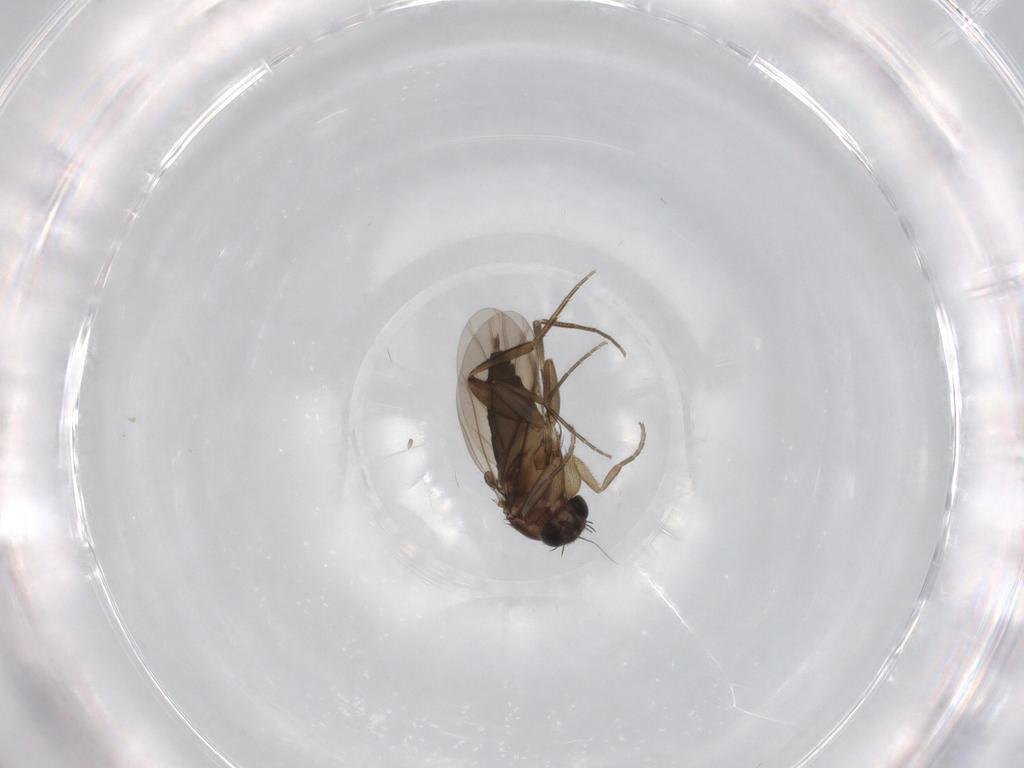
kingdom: Animalia
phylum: Arthropoda
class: Insecta
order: Diptera
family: Phoridae
